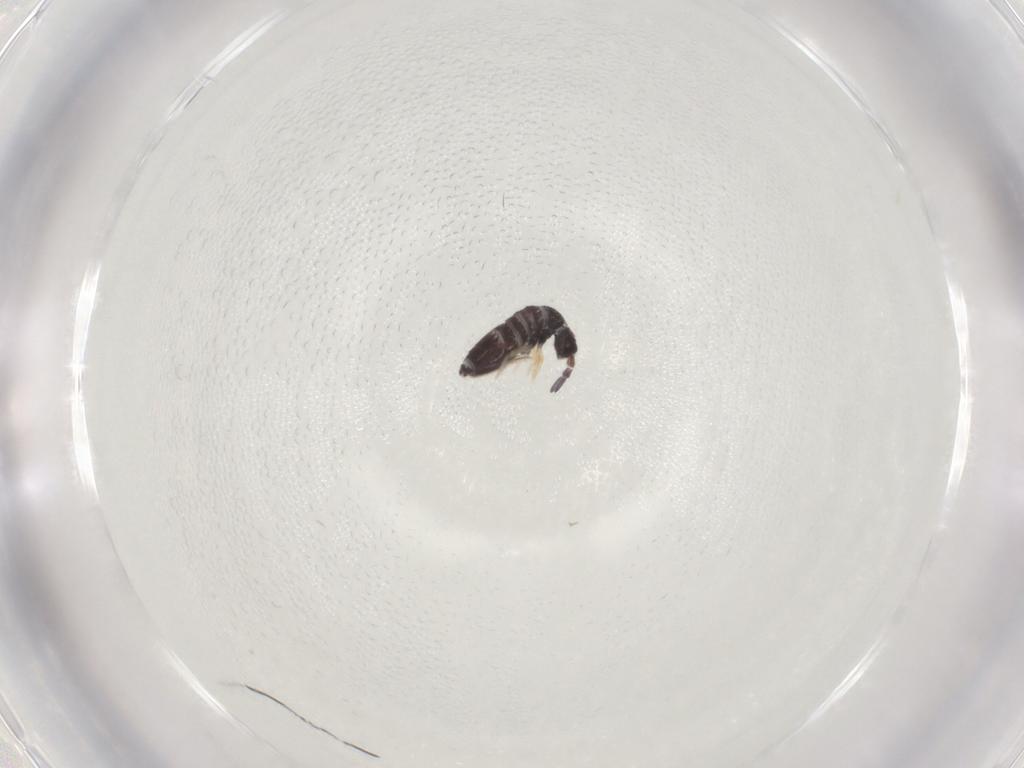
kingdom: Animalia
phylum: Arthropoda
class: Collembola
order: Entomobryomorpha
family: Entomobryidae
